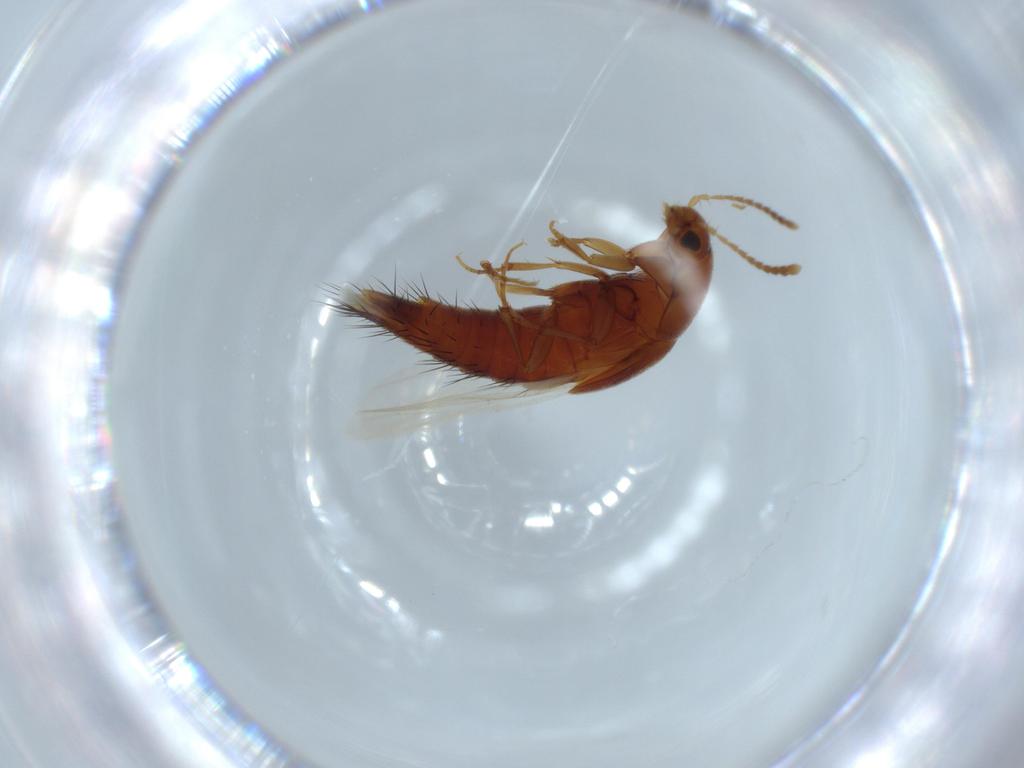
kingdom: Animalia
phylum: Arthropoda
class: Insecta
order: Coleoptera
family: Staphylinidae
